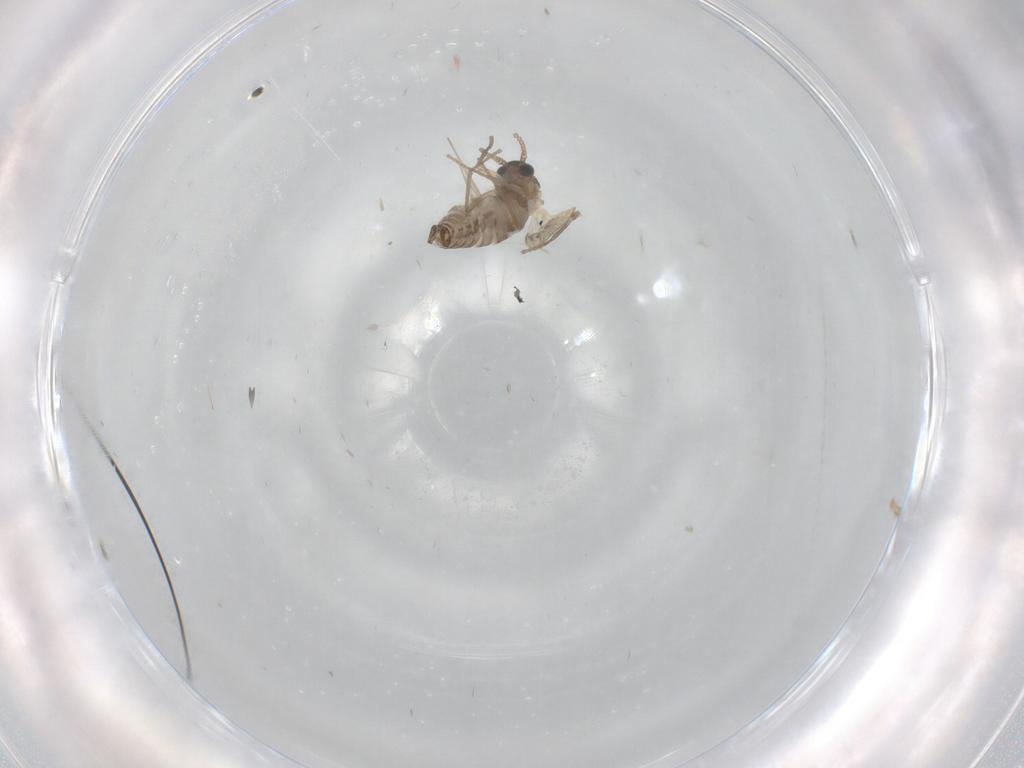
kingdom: Animalia
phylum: Arthropoda
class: Insecta
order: Diptera
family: Psychodidae
